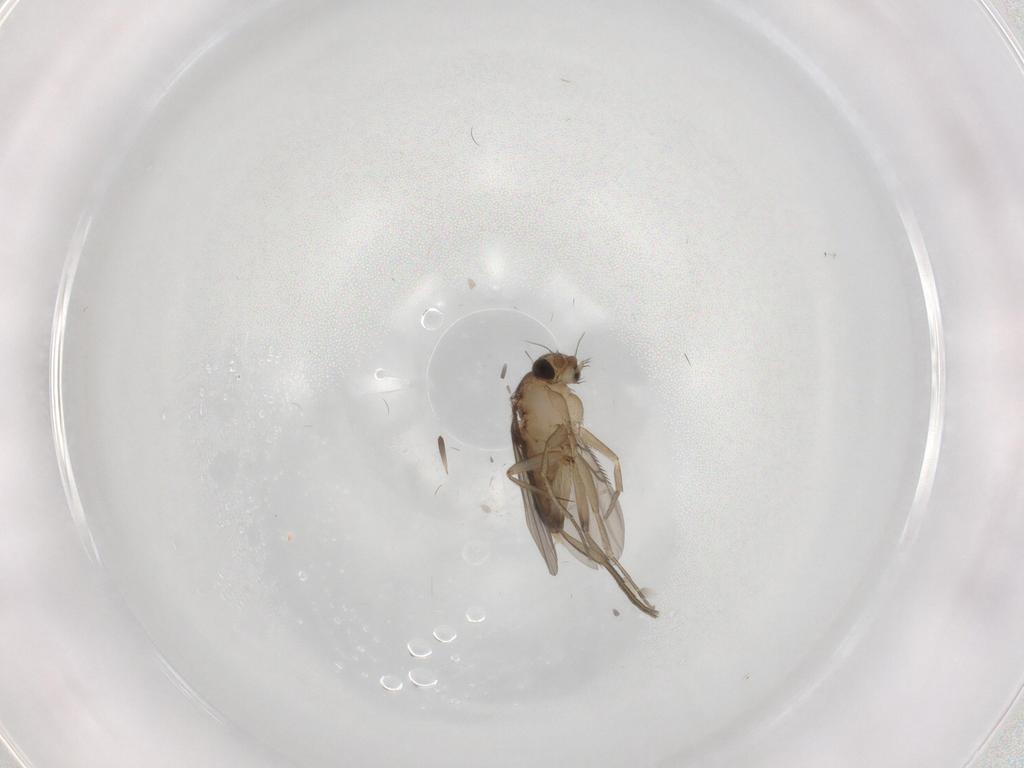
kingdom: Animalia
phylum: Arthropoda
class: Insecta
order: Diptera
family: Phoridae
